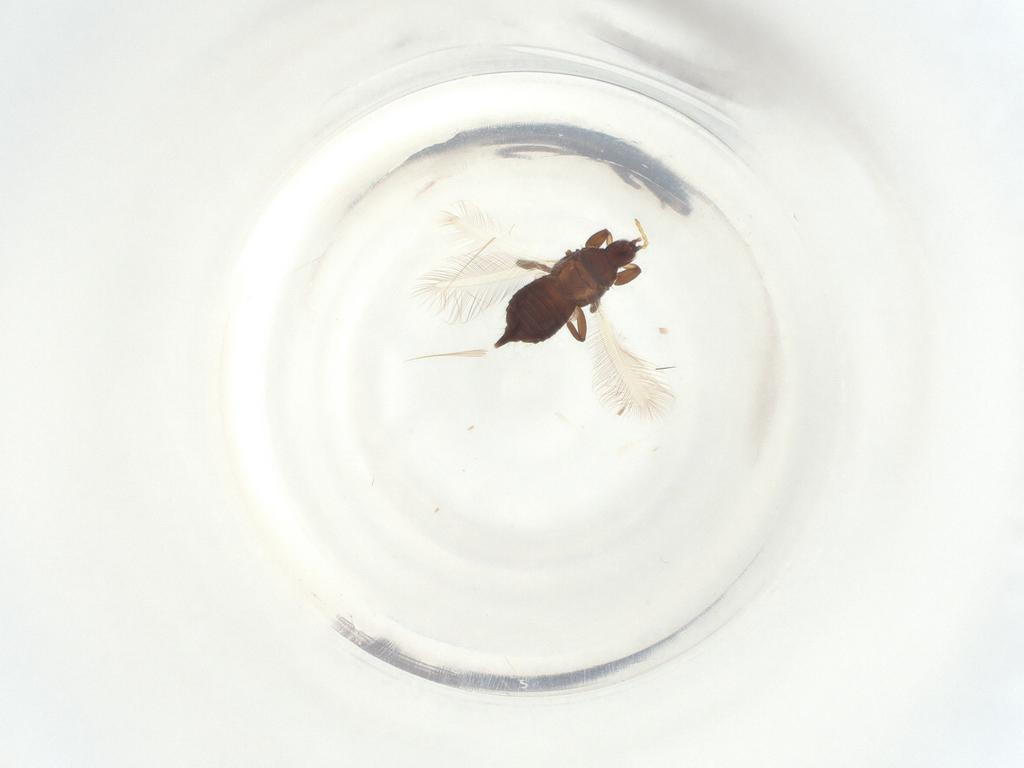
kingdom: Animalia
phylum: Arthropoda
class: Insecta
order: Thysanoptera
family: Phlaeothripidae
